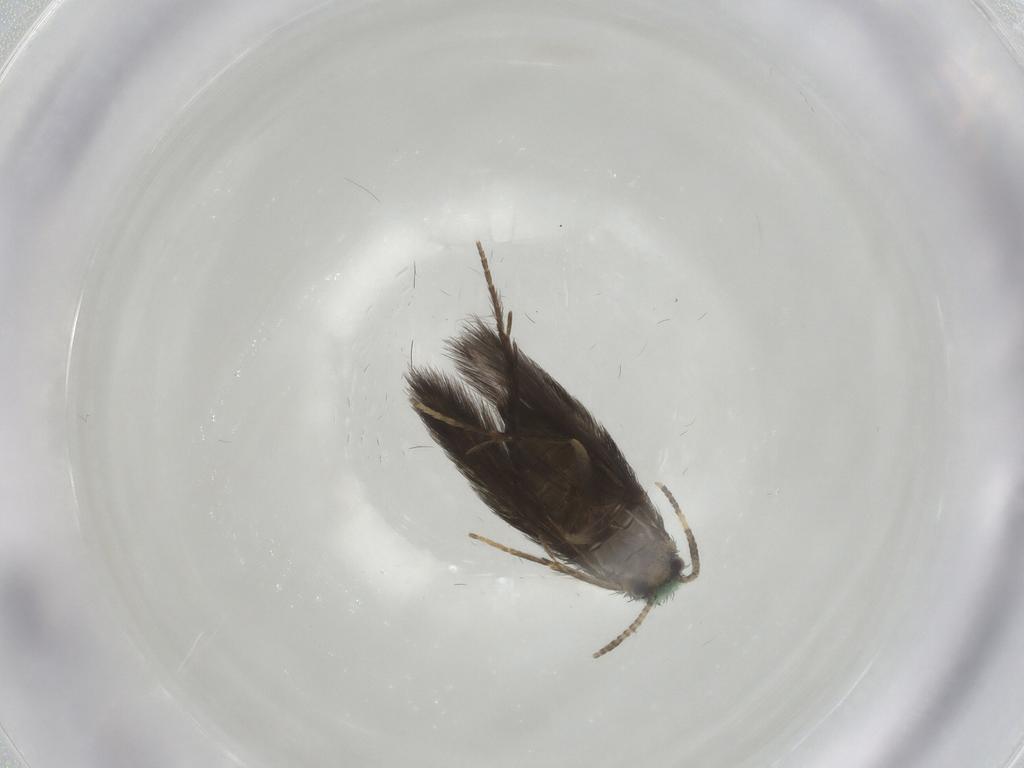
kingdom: Animalia
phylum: Arthropoda
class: Insecta
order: Trichoptera
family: Hydroptilidae
